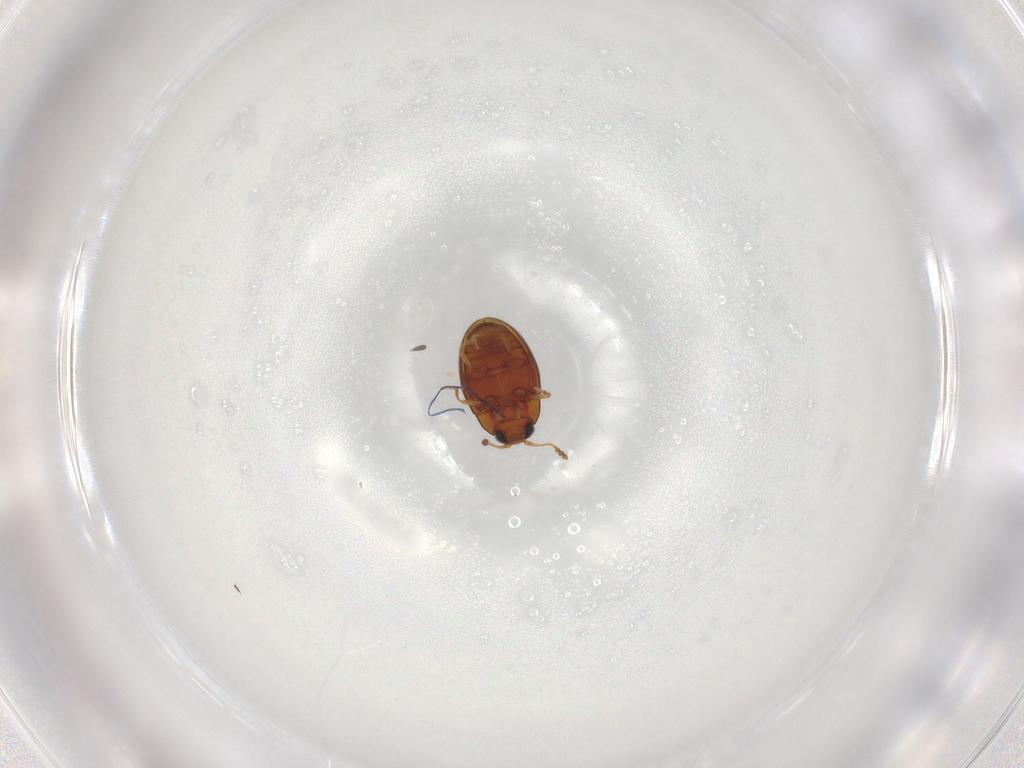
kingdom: Animalia
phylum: Arthropoda
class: Insecta
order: Coleoptera
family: Cryptophagidae
